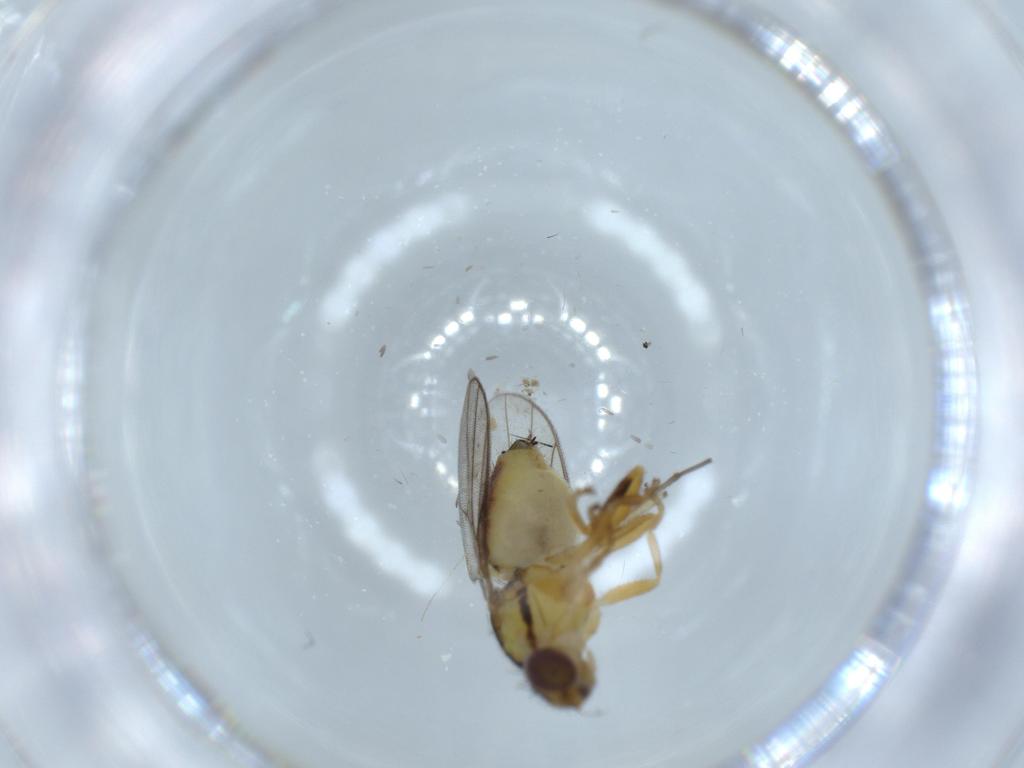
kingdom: Animalia
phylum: Arthropoda
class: Insecta
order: Diptera
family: Chloropidae
